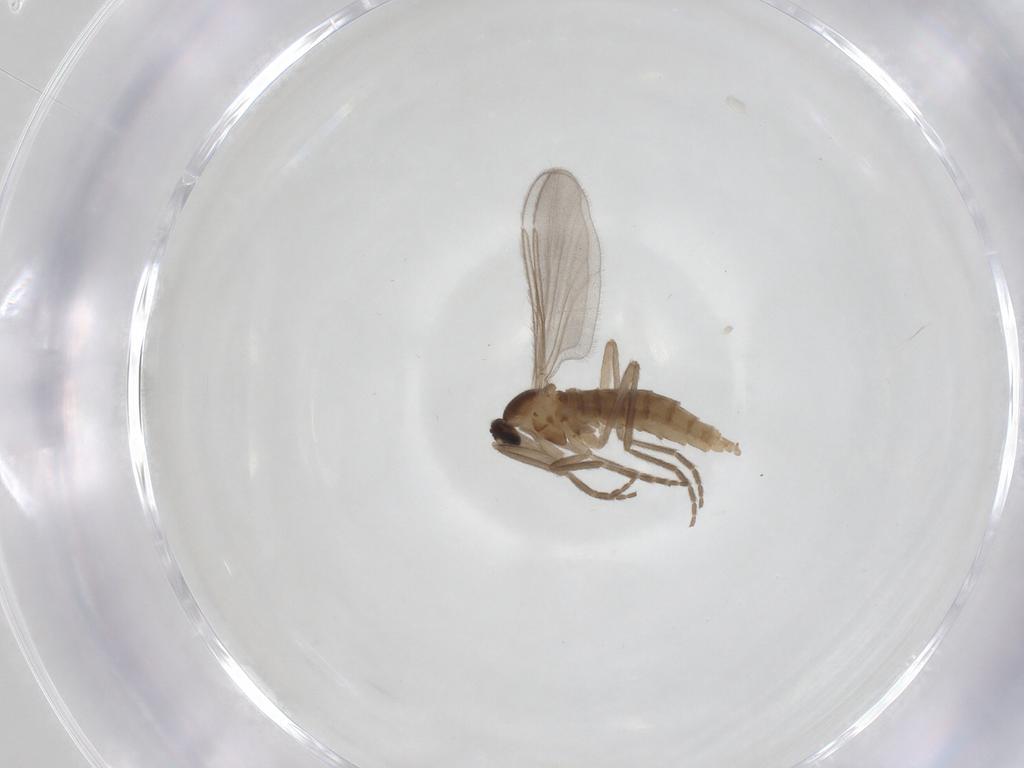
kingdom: Animalia
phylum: Arthropoda
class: Insecta
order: Diptera
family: Cecidomyiidae
